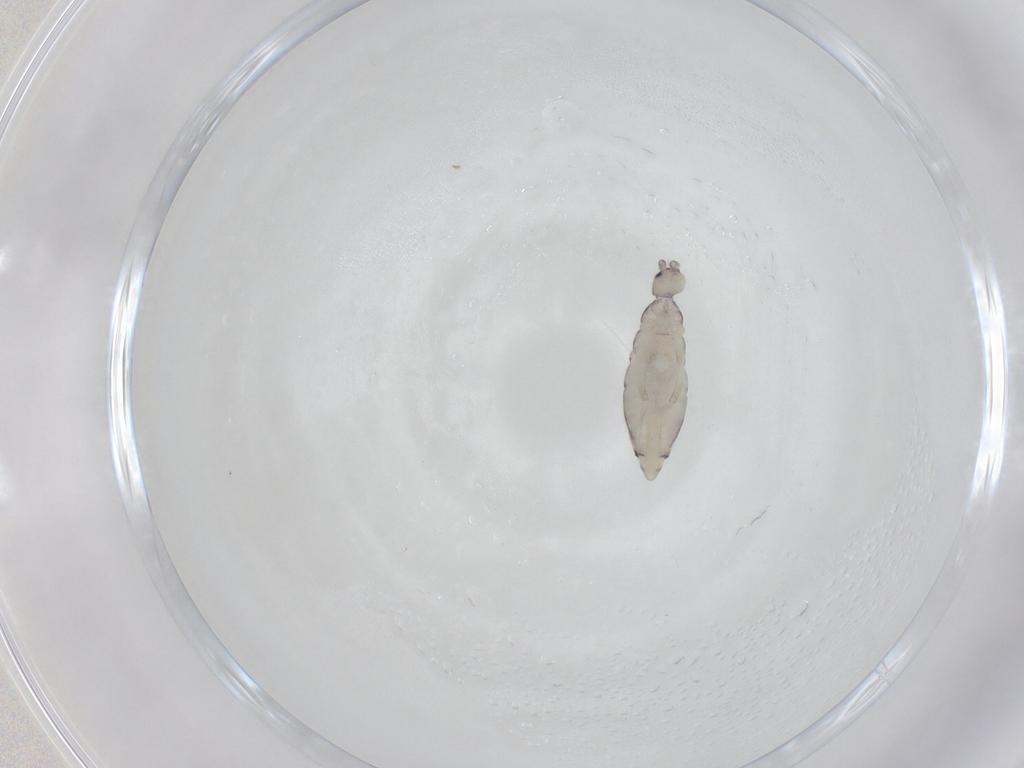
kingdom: Animalia
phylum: Arthropoda
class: Collembola
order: Entomobryomorpha
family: Entomobryidae
